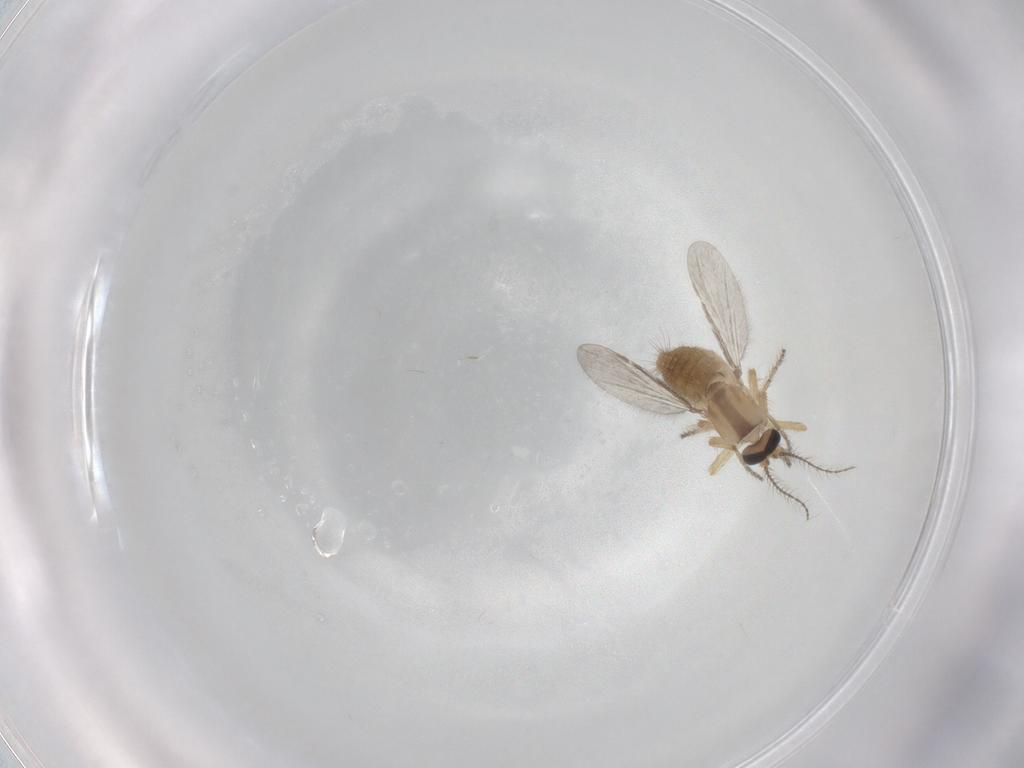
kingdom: Animalia
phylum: Arthropoda
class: Insecta
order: Diptera
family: Ceratopogonidae
